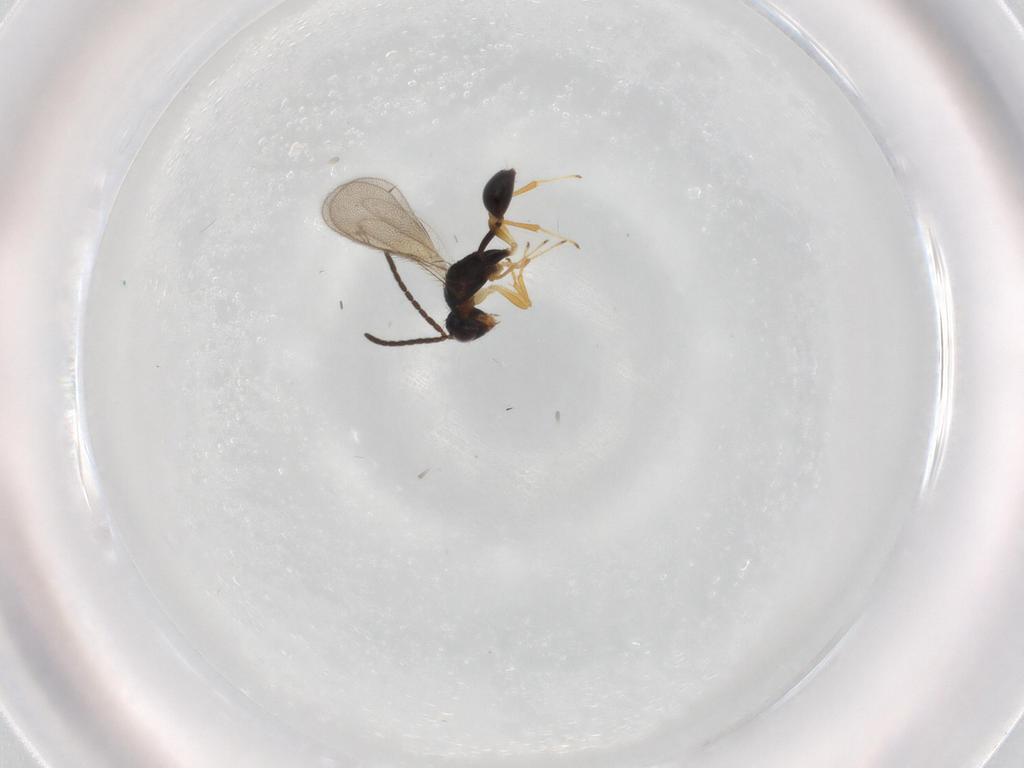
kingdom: Animalia
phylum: Arthropoda
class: Insecta
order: Hymenoptera
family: Diparidae
